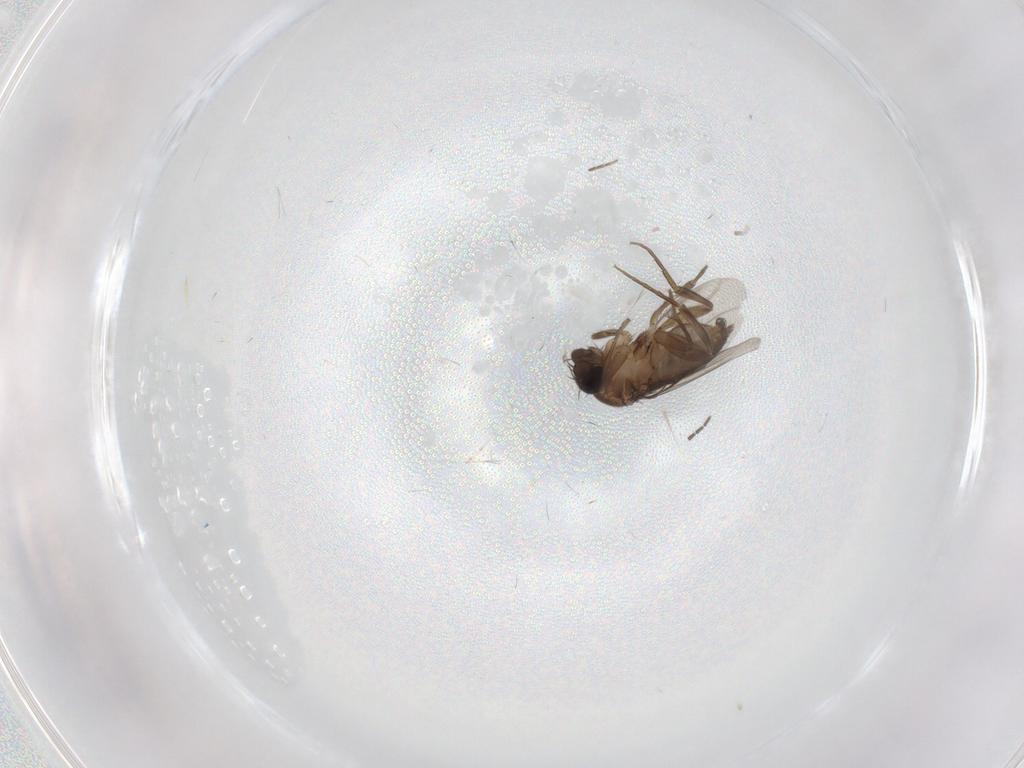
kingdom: Animalia
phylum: Arthropoda
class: Insecta
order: Diptera
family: Phoridae
